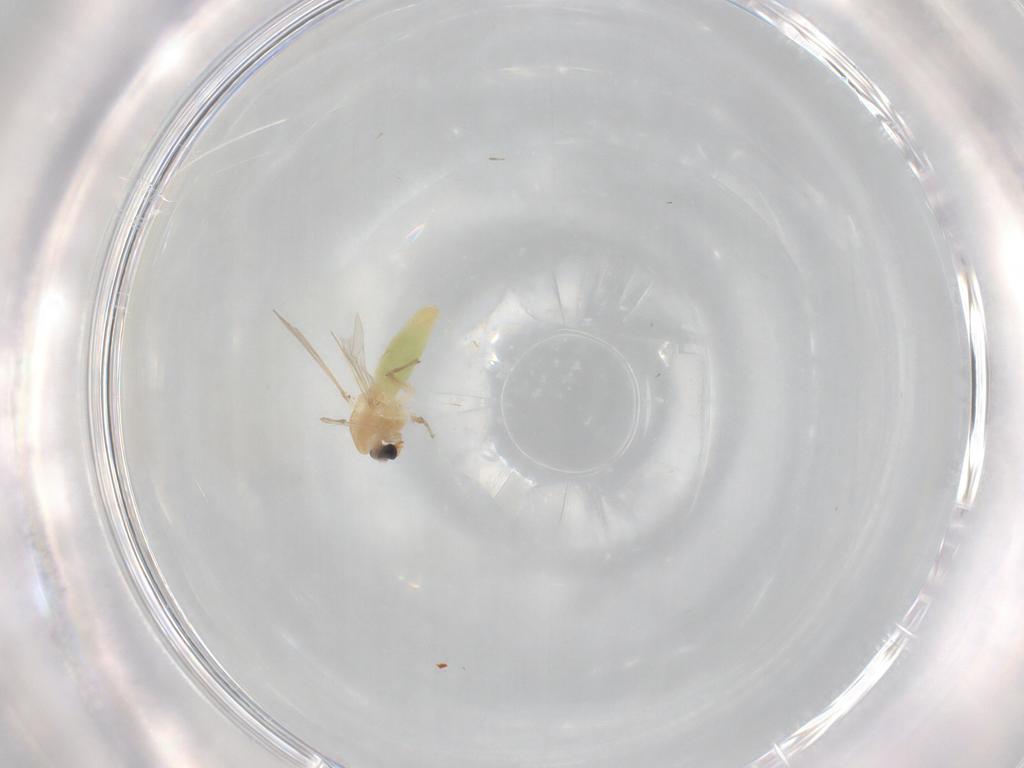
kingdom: Animalia
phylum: Arthropoda
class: Insecta
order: Diptera
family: Chironomidae
